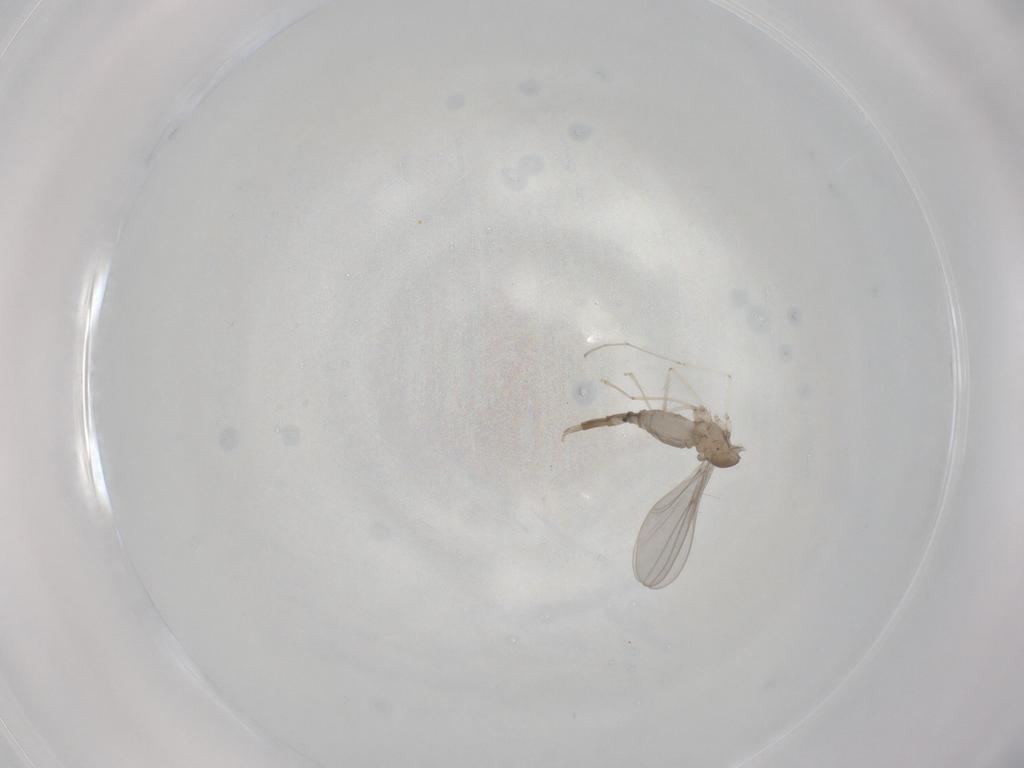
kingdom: Animalia
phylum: Arthropoda
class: Insecta
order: Diptera
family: Cecidomyiidae
